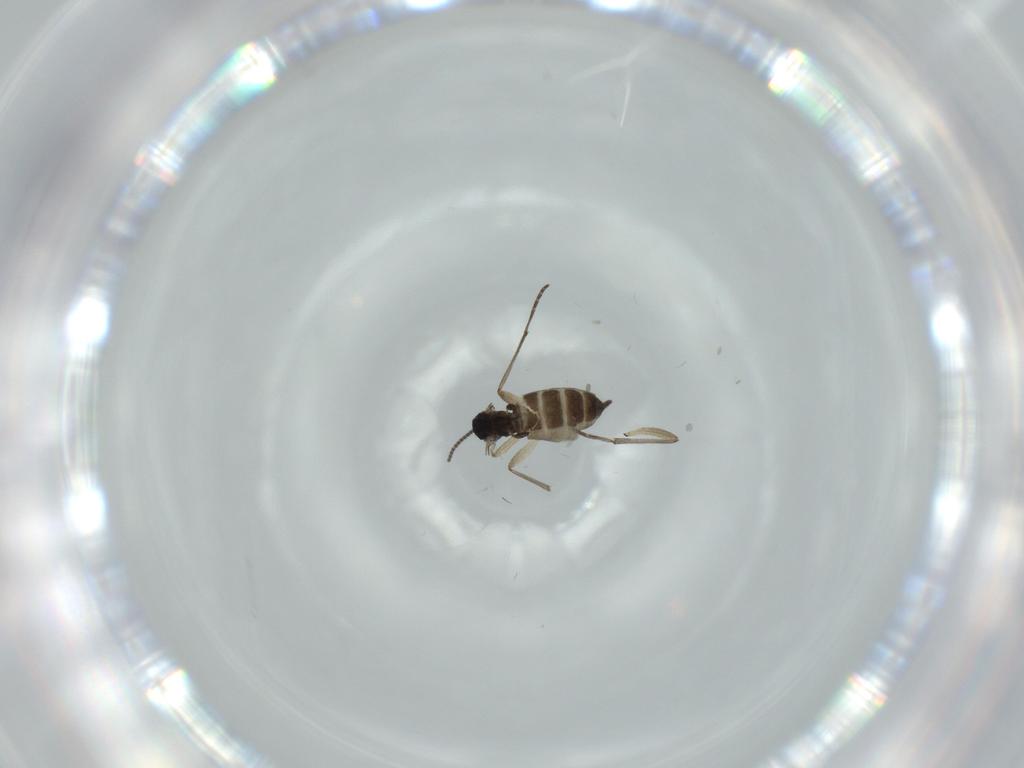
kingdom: Animalia
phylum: Arthropoda
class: Insecta
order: Diptera
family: Sciaridae
